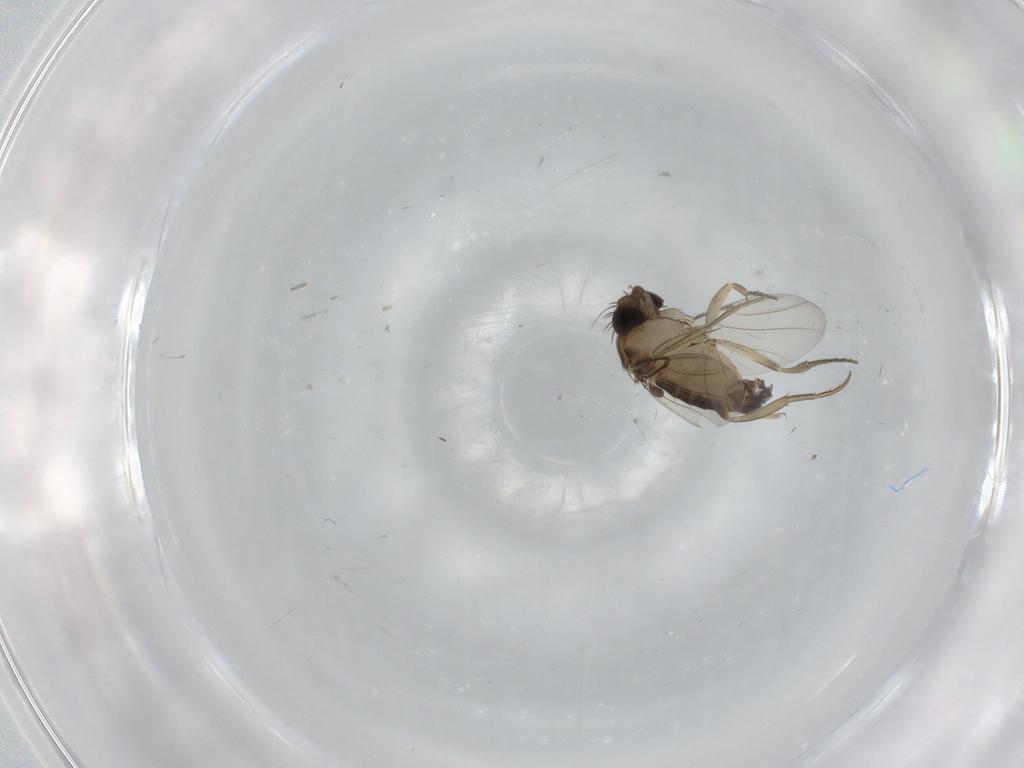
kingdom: Animalia
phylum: Arthropoda
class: Insecta
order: Diptera
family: Phoridae
